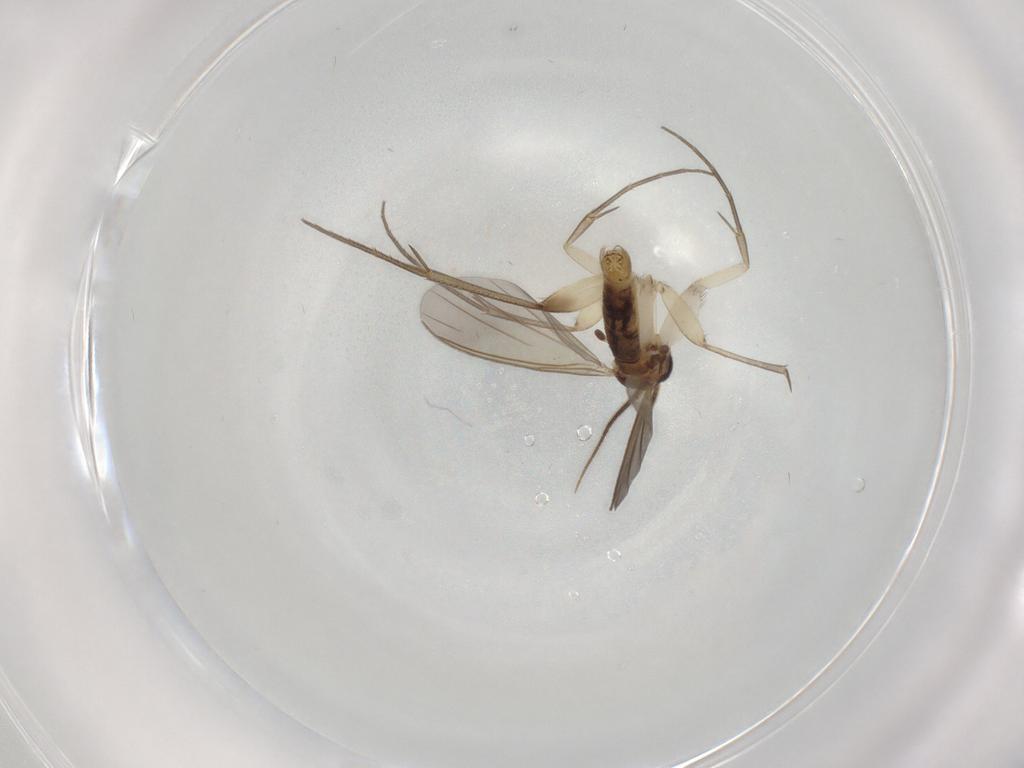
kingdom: Animalia
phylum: Arthropoda
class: Insecta
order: Diptera
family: Mycetophilidae
